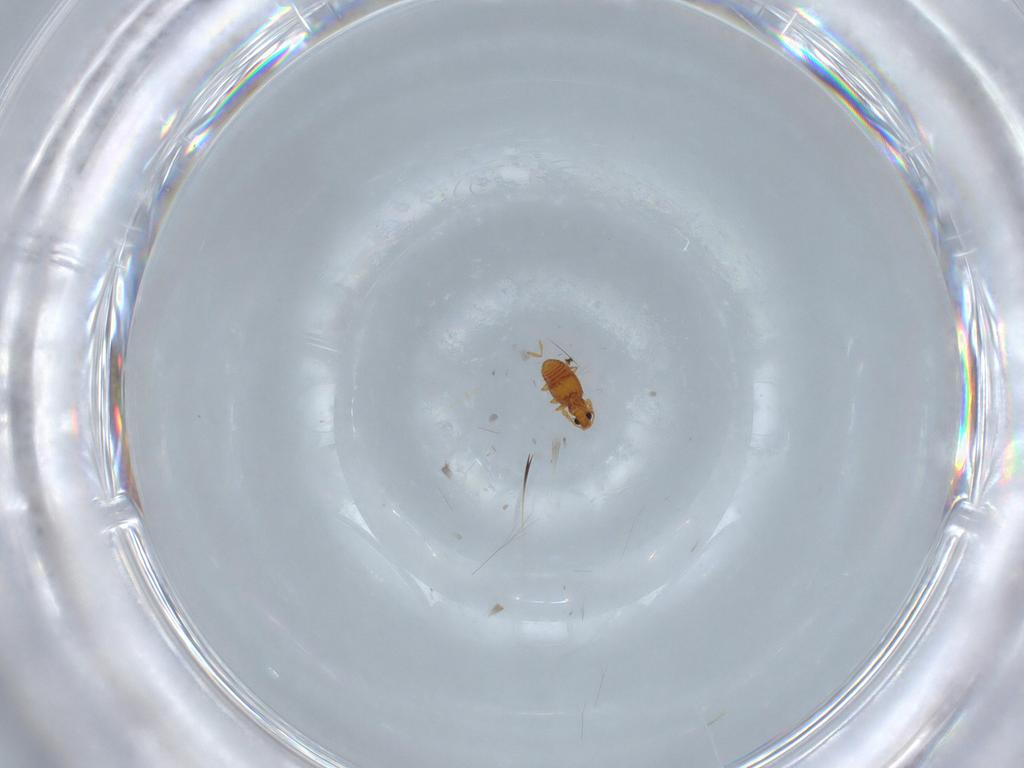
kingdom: Animalia
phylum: Arthropoda
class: Insecta
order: Coleoptera
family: Staphylinidae
